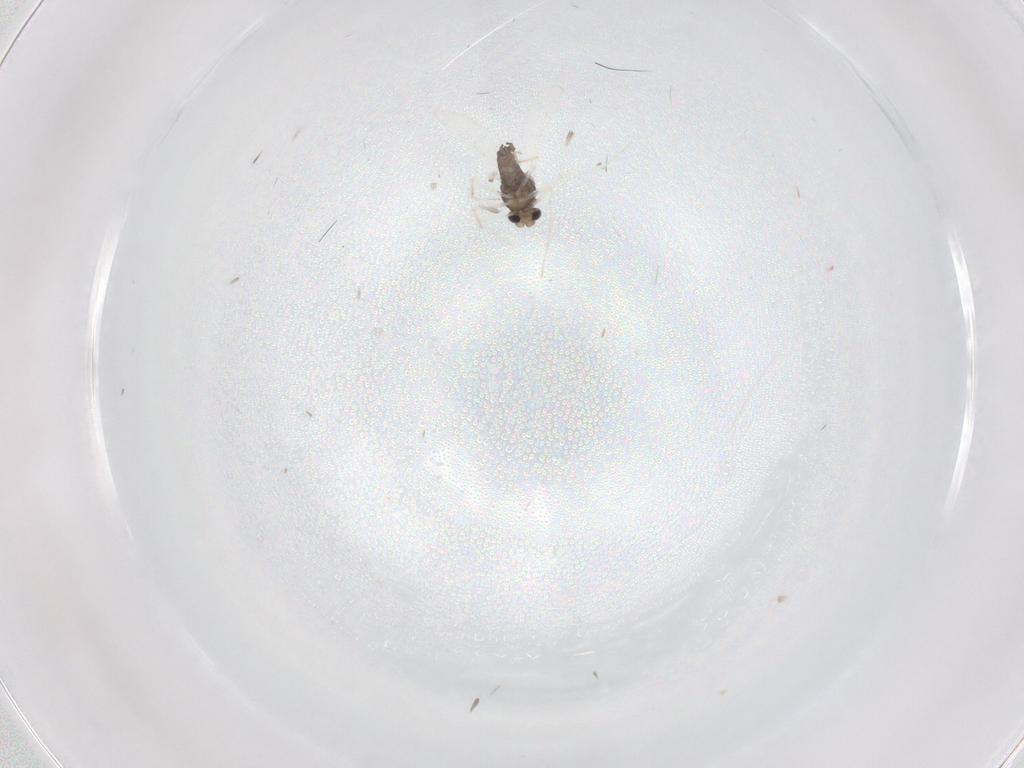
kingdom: Animalia
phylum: Arthropoda
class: Insecta
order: Diptera
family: Chironomidae
